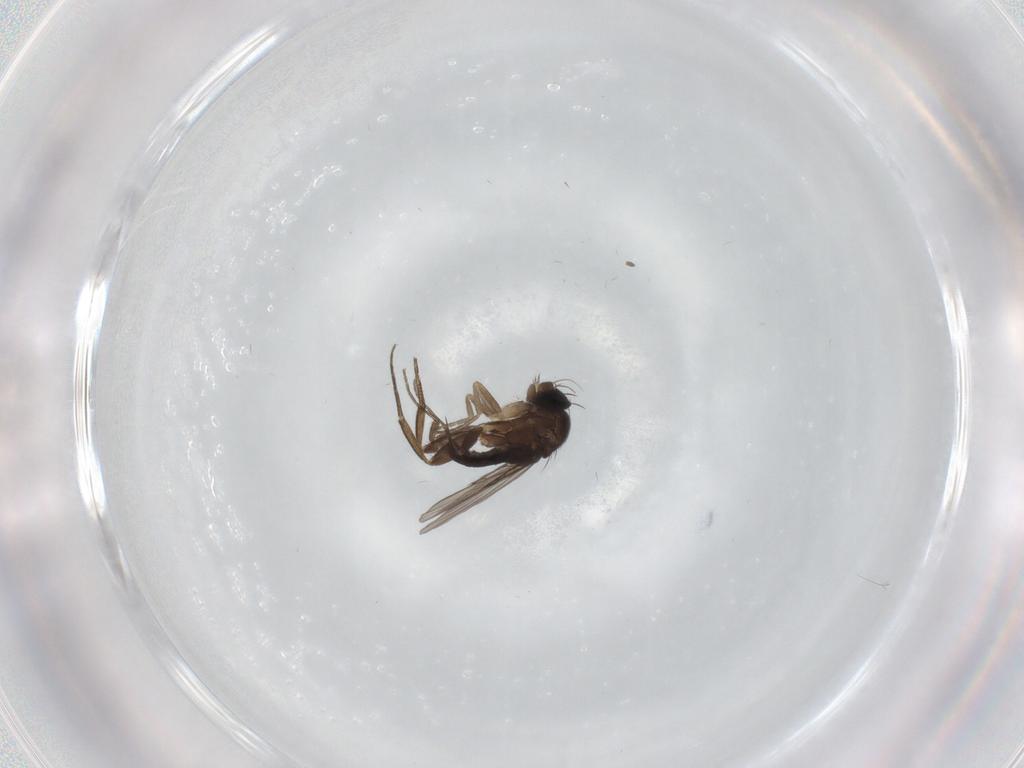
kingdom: Animalia
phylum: Arthropoda
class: Insecta
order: Diptera
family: Phoridae
